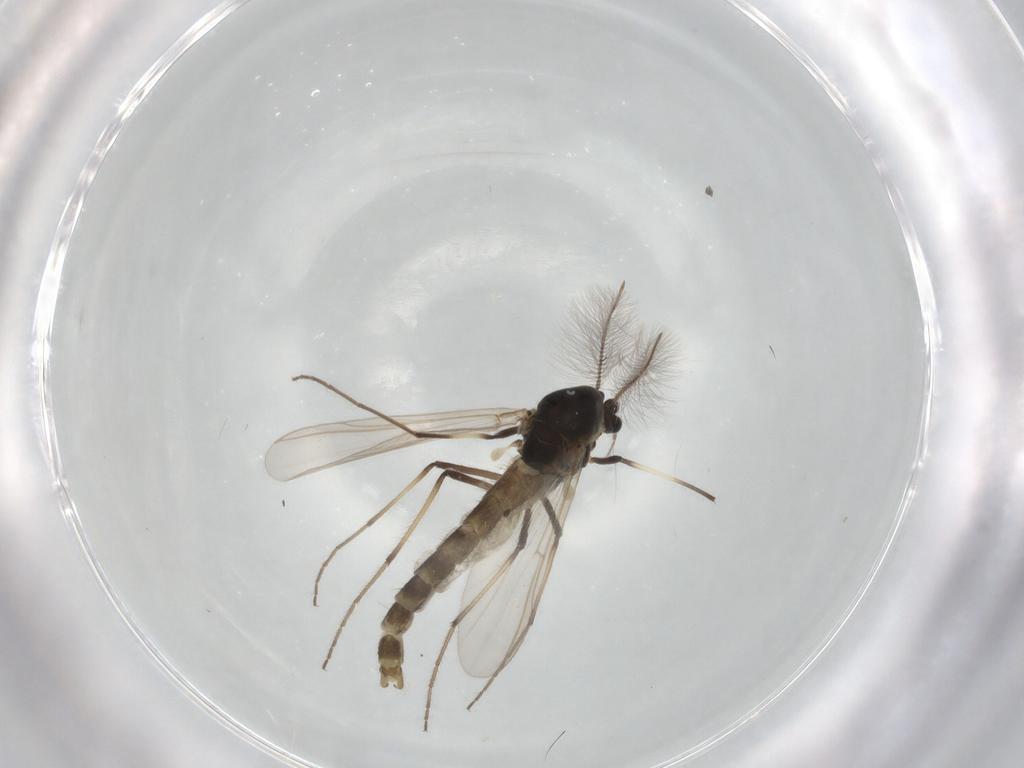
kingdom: Animalia
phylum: Arthropoda
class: Insecta
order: Diptera
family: Chironomidae
